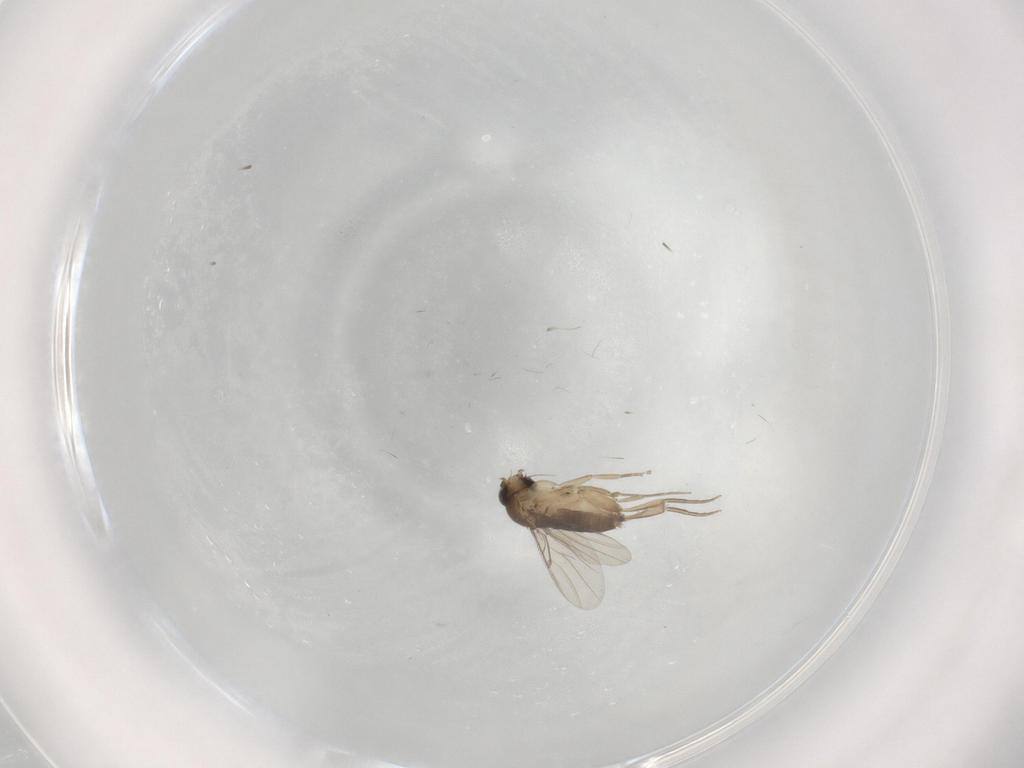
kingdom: Animalia
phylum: Arthropoda
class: Insecta
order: Diptera
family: Phoridae
